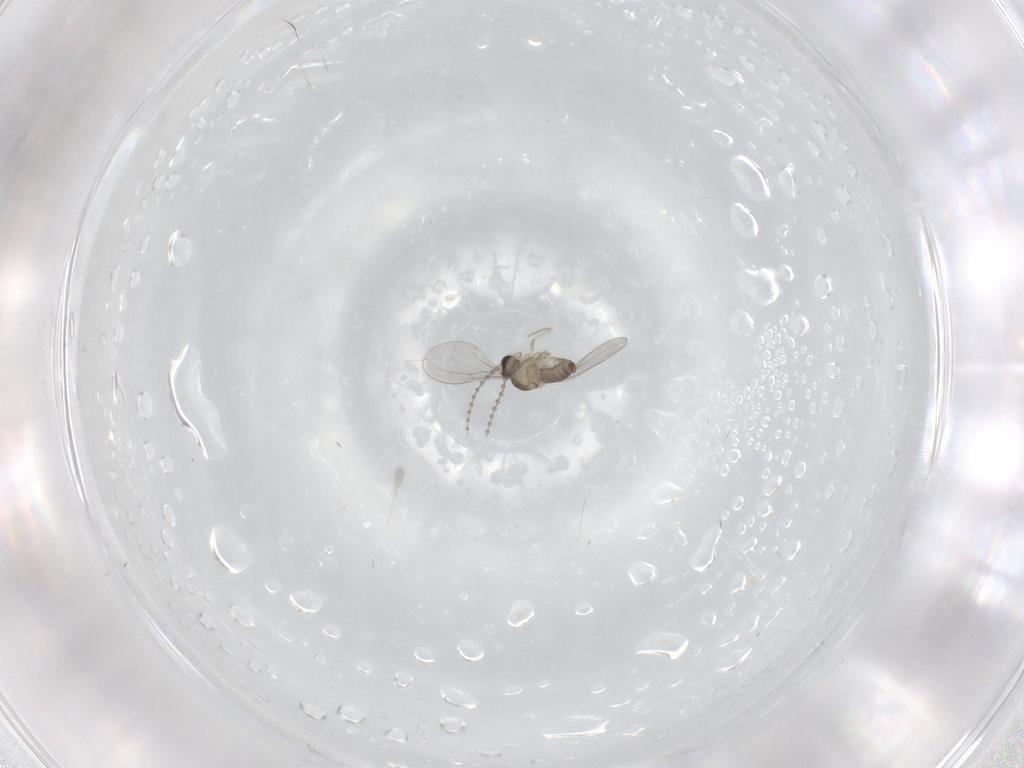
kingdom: Animalia
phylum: Arthropoda
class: Insecta
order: Diptera
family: Cecidomyiidae
